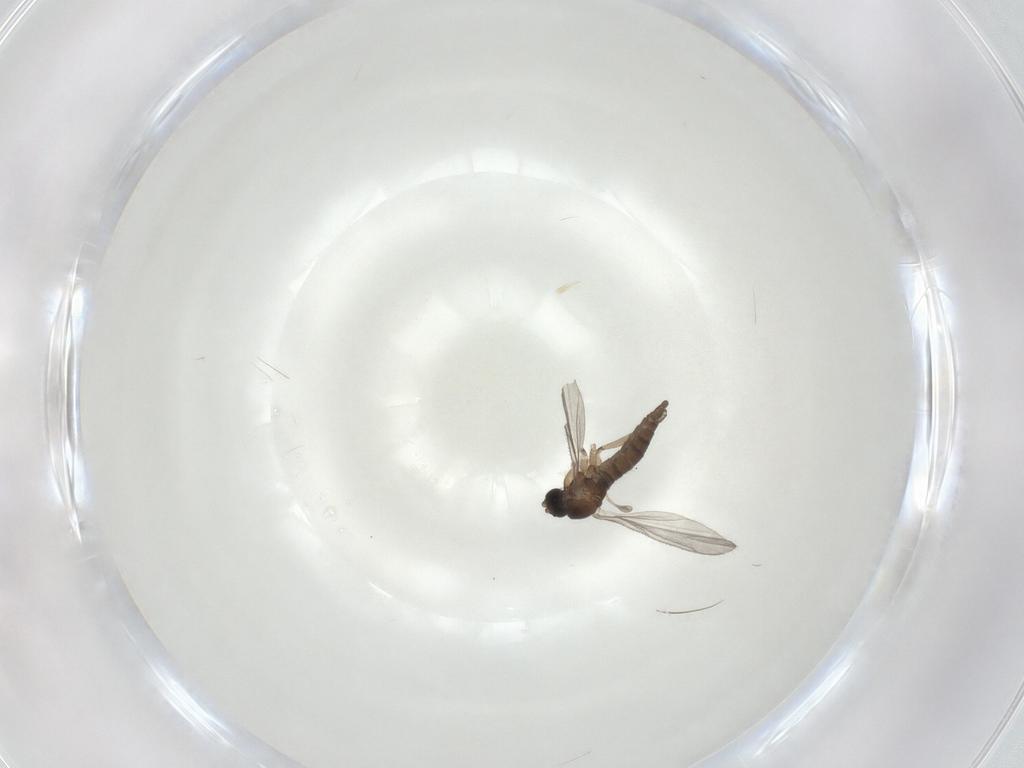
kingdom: Animalia
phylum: Arthropoda
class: Insecta
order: Diptera
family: Sciaridae
